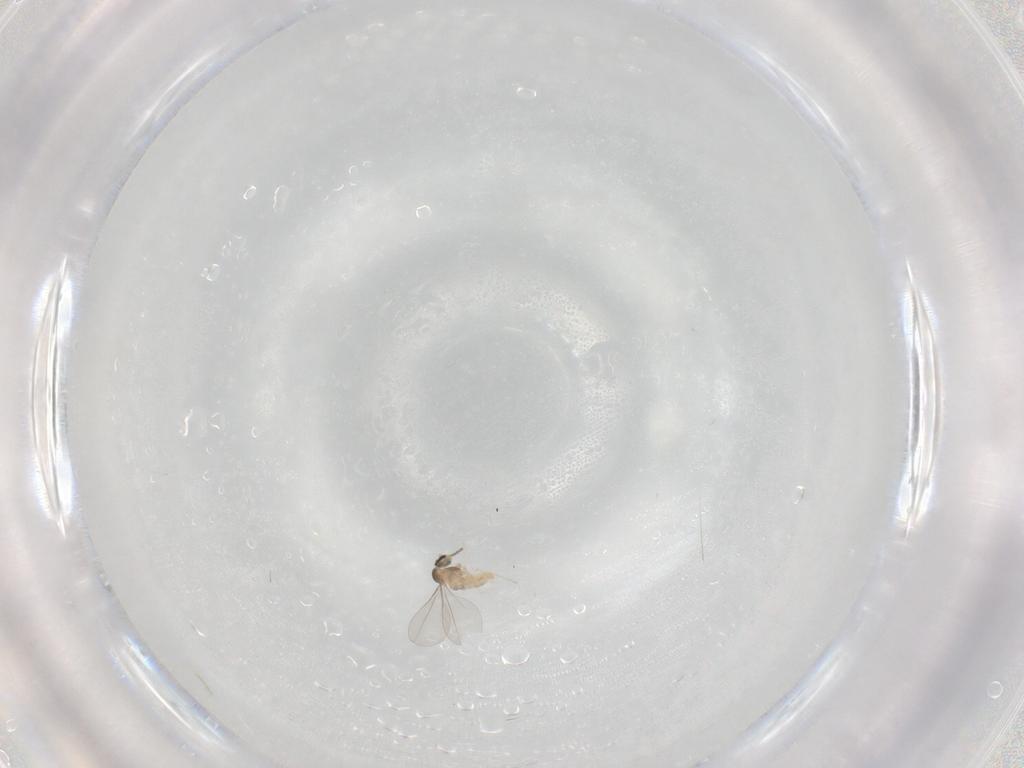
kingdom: Animalia
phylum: Arthropoda
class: Insecta
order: Diptera
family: Cecidomyiidae
